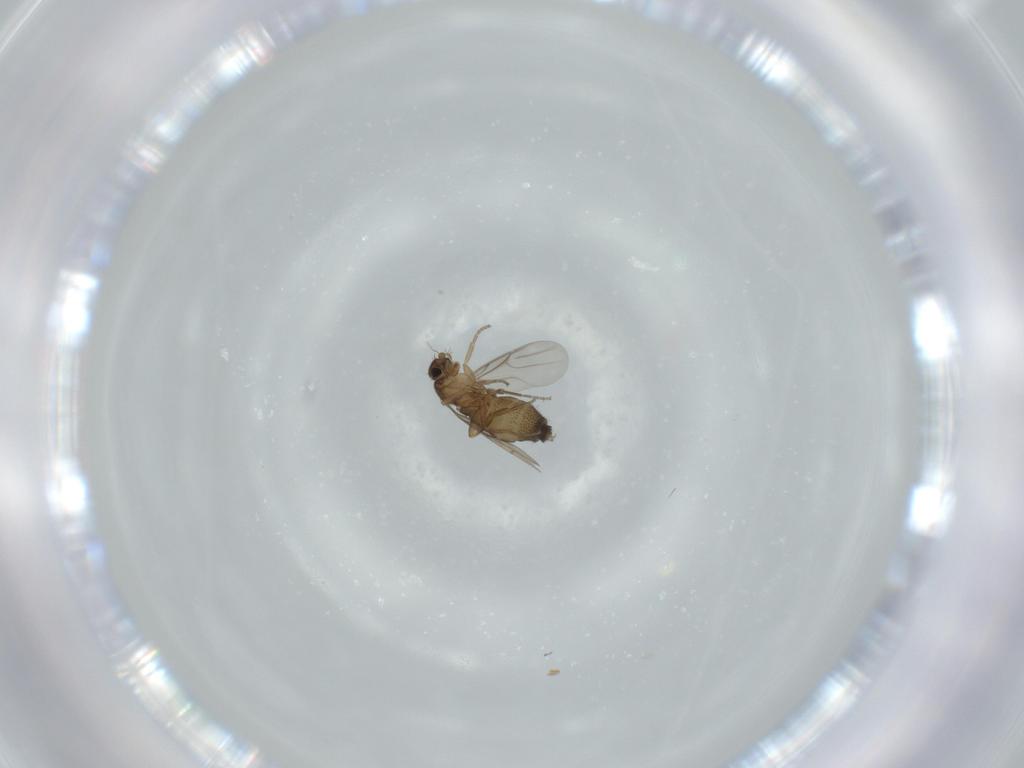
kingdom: Animalia
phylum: Arthropoda
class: Insecta
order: Diptera
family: Phoridae
